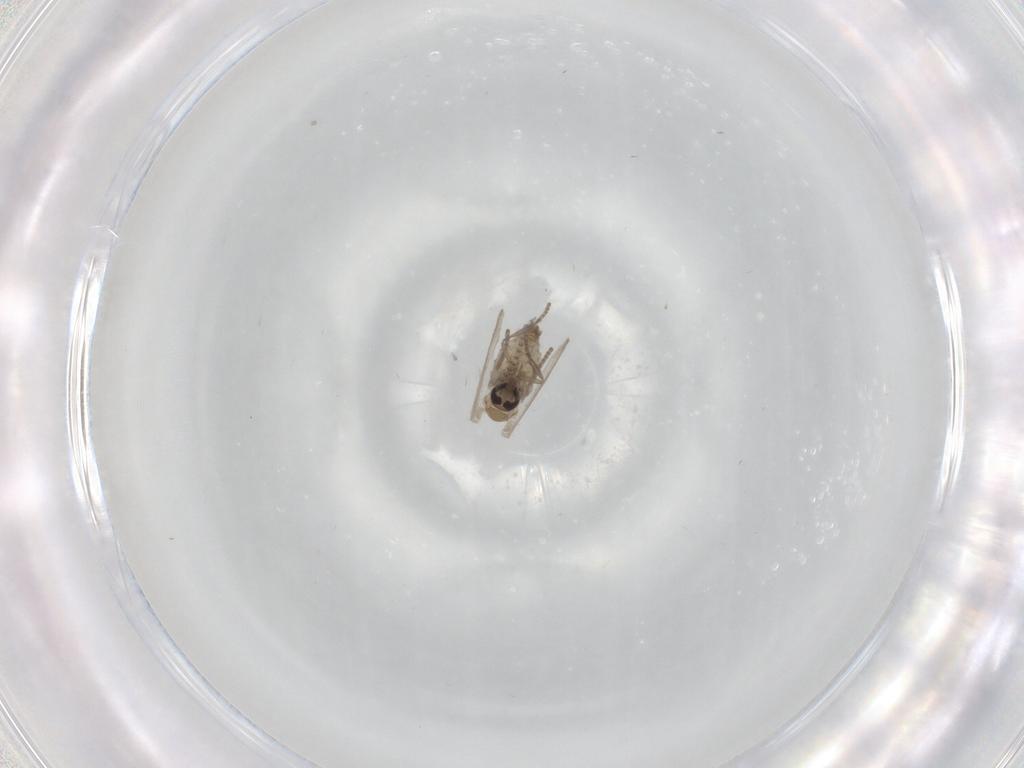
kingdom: Animalia
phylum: Arthropoda
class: Insecta
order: Diptera
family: Psychodidae
